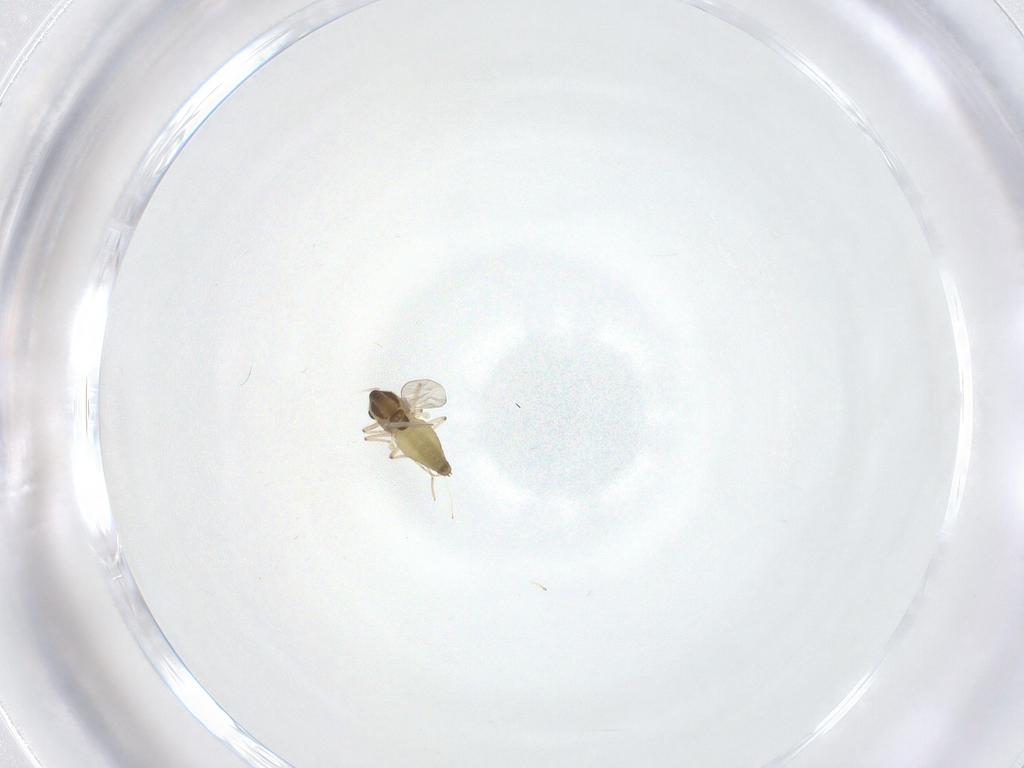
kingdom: Animalia
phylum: Arthropoda
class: Insecta
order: Diptera
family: Chironomidae
